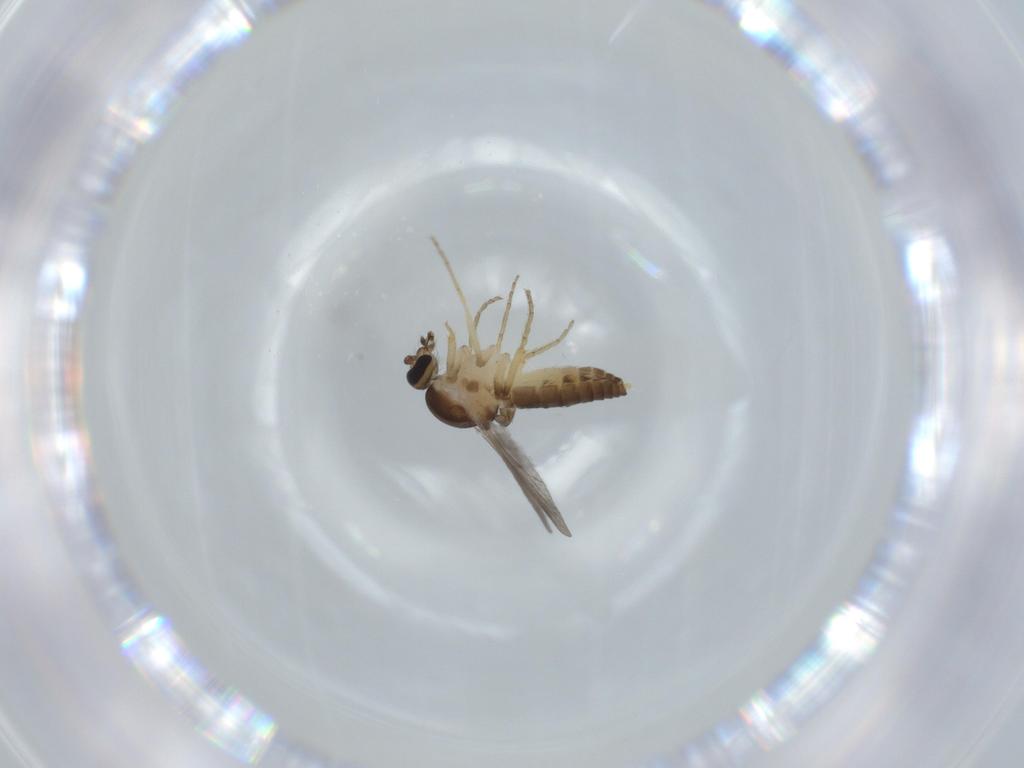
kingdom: Animalia
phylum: Arthropoda
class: Insecta
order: Diptera
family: Ceratopogonidae
